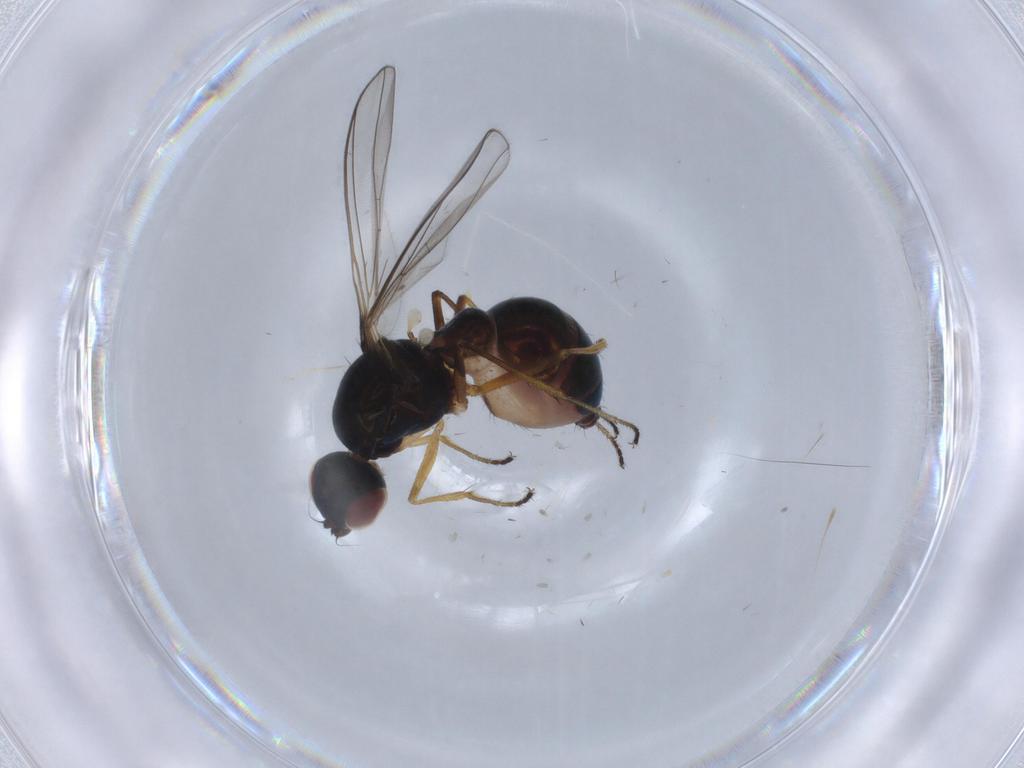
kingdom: Animalia
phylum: Arthropoda
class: Insecta
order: Diptera
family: Sepsidae
